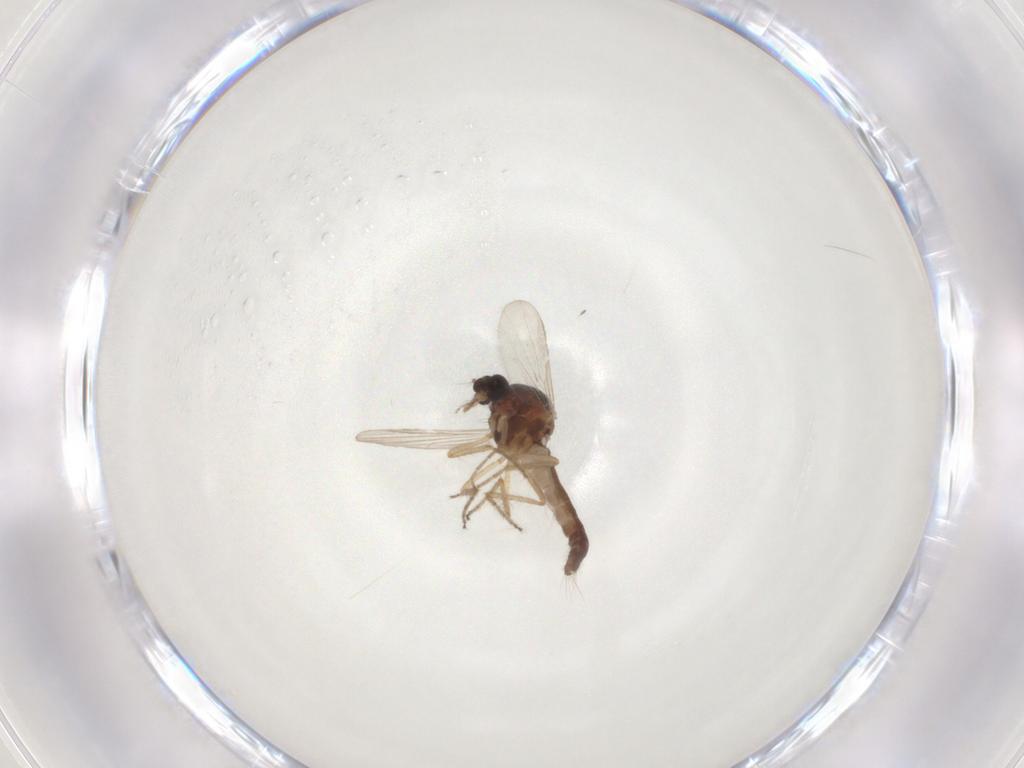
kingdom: Animalia
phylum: Arthropoda
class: Insecta
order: Diptera
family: Ceratopogonidae
